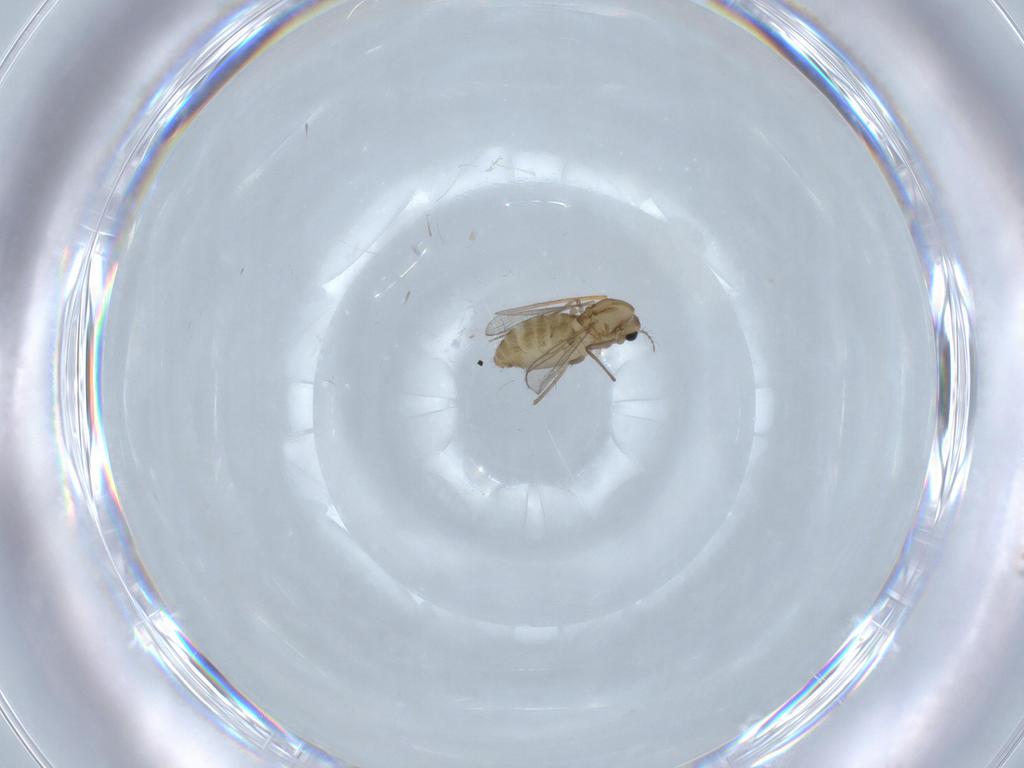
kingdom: Animalia
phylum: Arthropoda
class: Insecta
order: Diptera
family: Chironomidae
